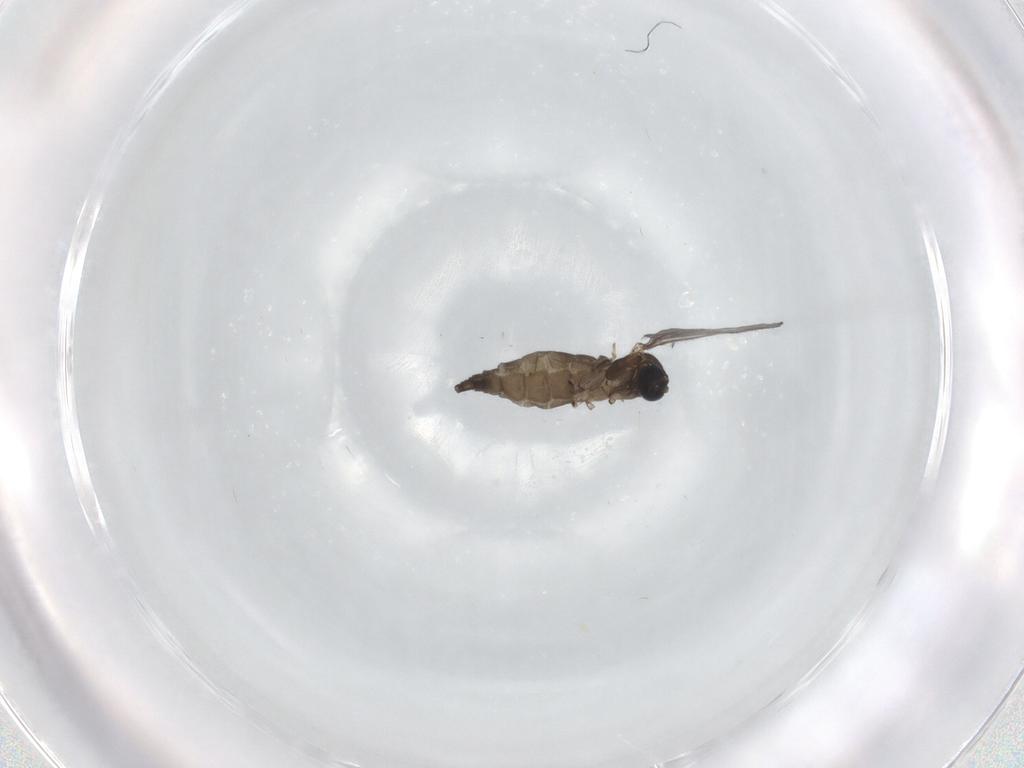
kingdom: Animalia
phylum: Arthropoda
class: Insecta
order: Diptera
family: Sciaridae
